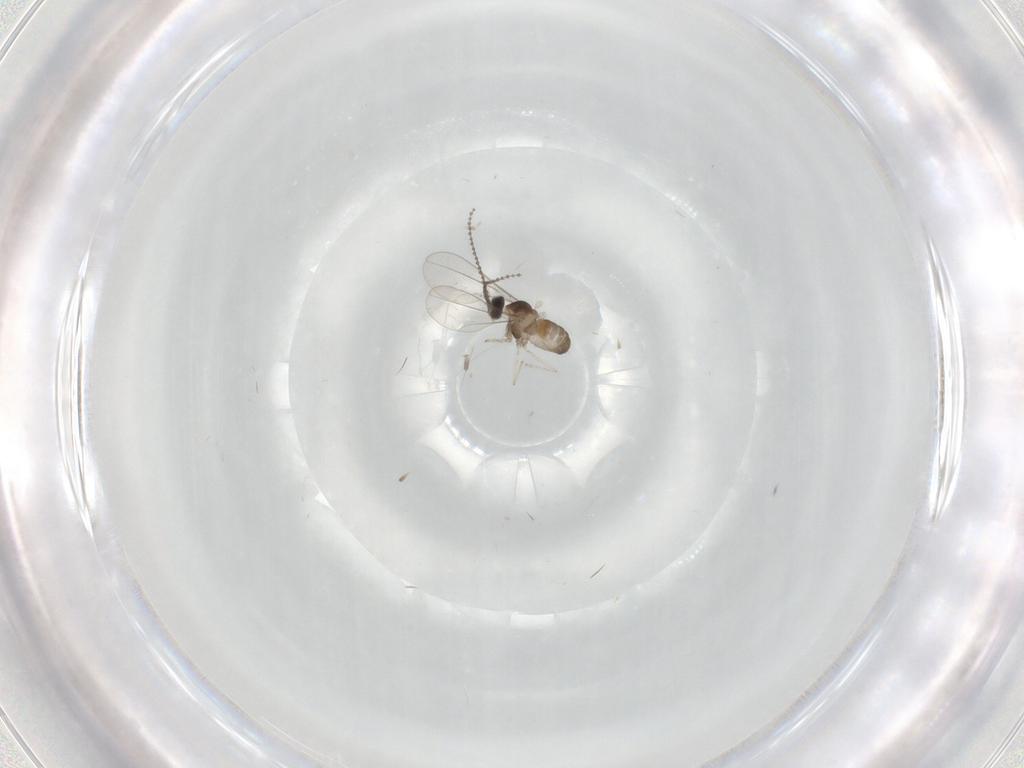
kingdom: Animalia
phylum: Arthropoda
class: Insecta
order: Diptera
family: Cecidomyiidae
